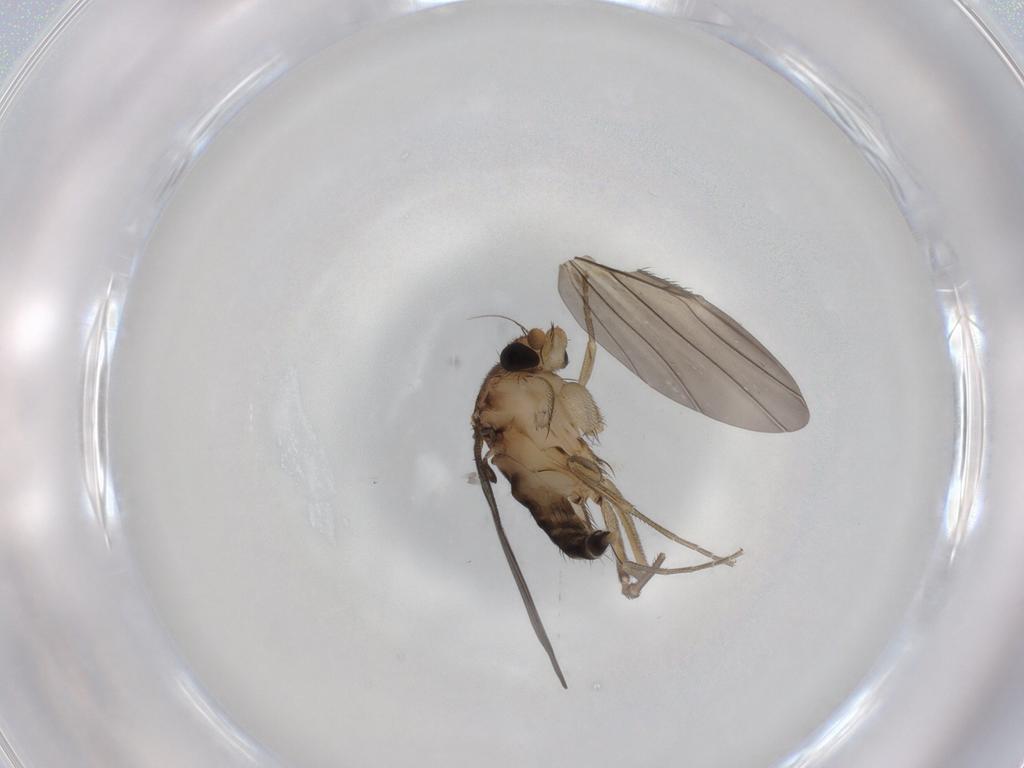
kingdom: Animalia
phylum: Arthropoda
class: Insecta
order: Diptera
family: Phoridae
